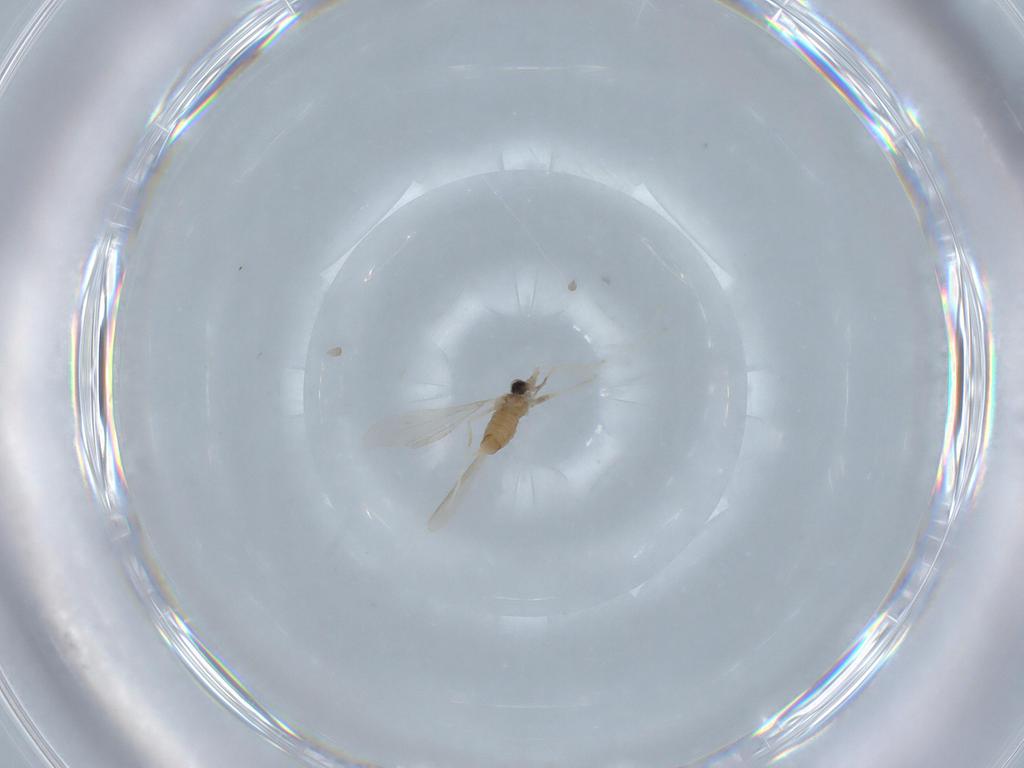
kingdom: Animalia
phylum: Arthropoda
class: Insecta
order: Diptera
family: Cecidomyiidae
